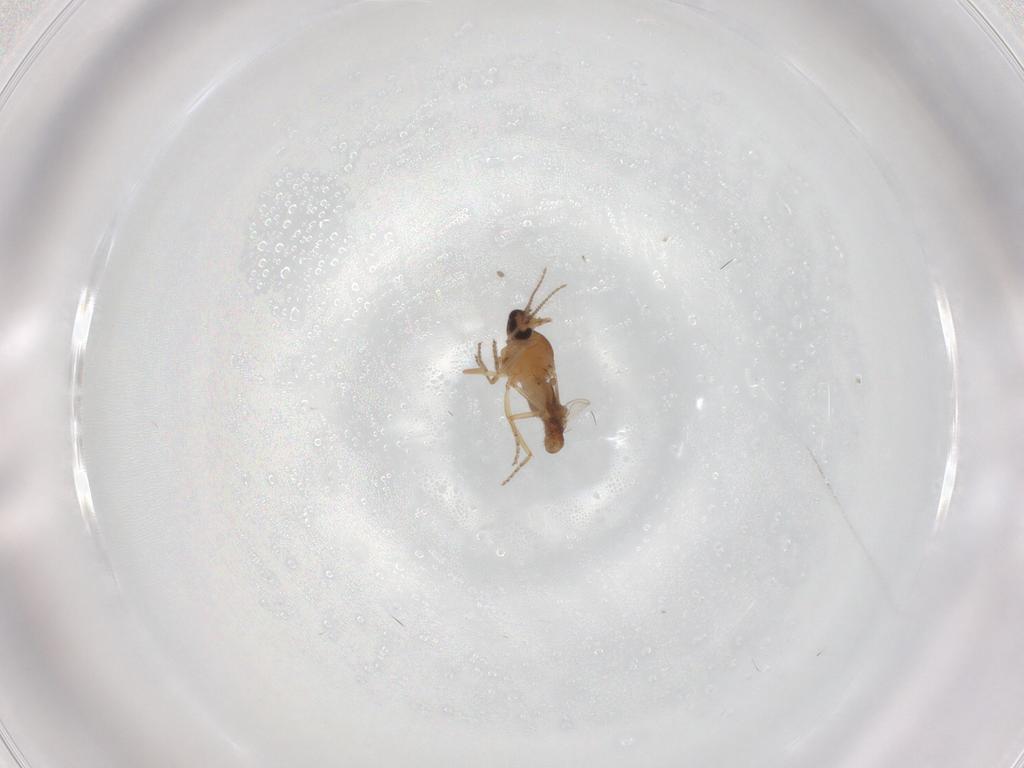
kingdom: Animalia
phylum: Arthropoda
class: Insecta
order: Diptera
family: Ceratopogonidae
